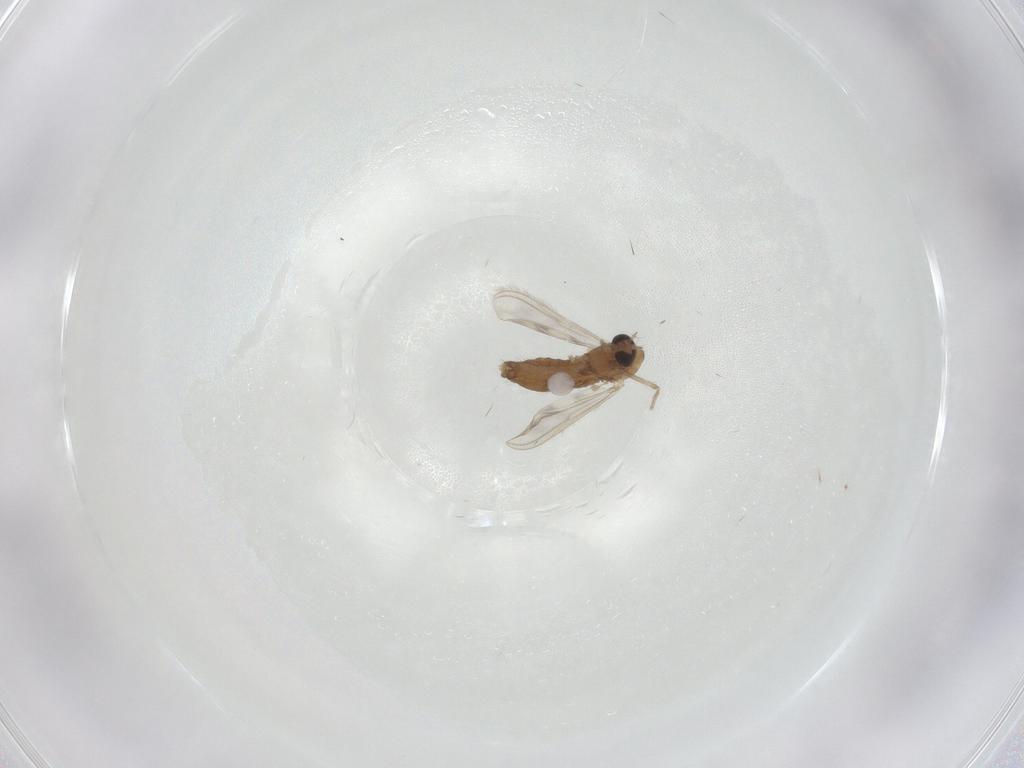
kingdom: Animalia
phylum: Arthropoda
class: Insecta
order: Diptera
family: Chironomidae
